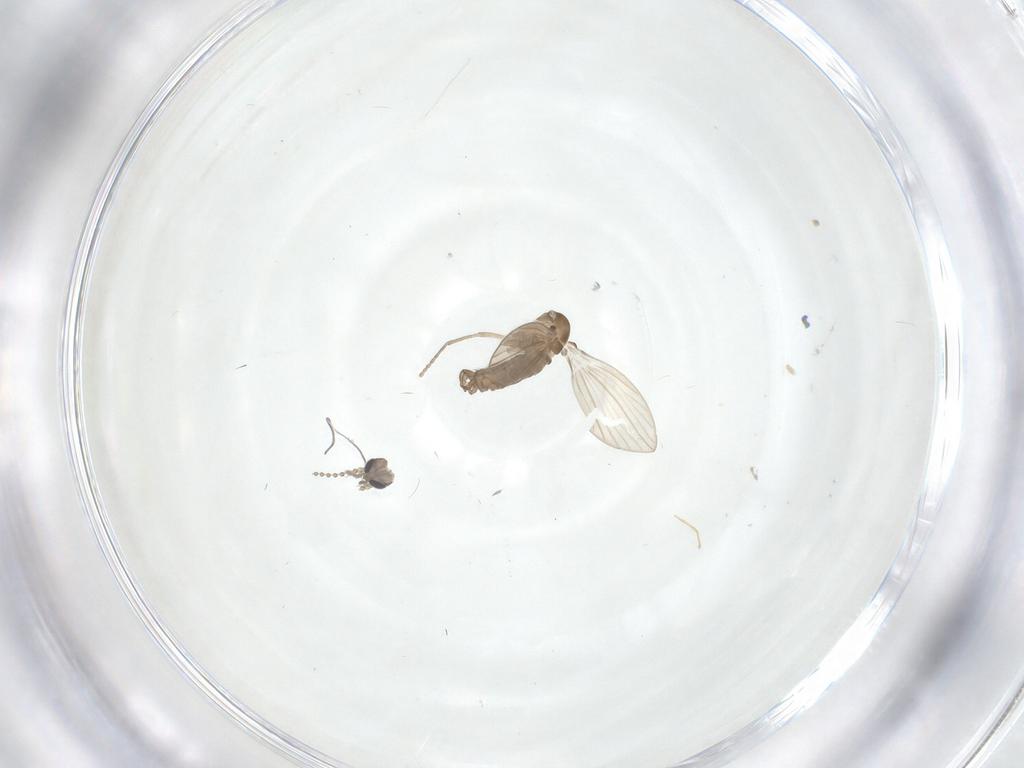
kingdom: Animalia
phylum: Arthropoda
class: Insecta
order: Diptera
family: Psychodidae
